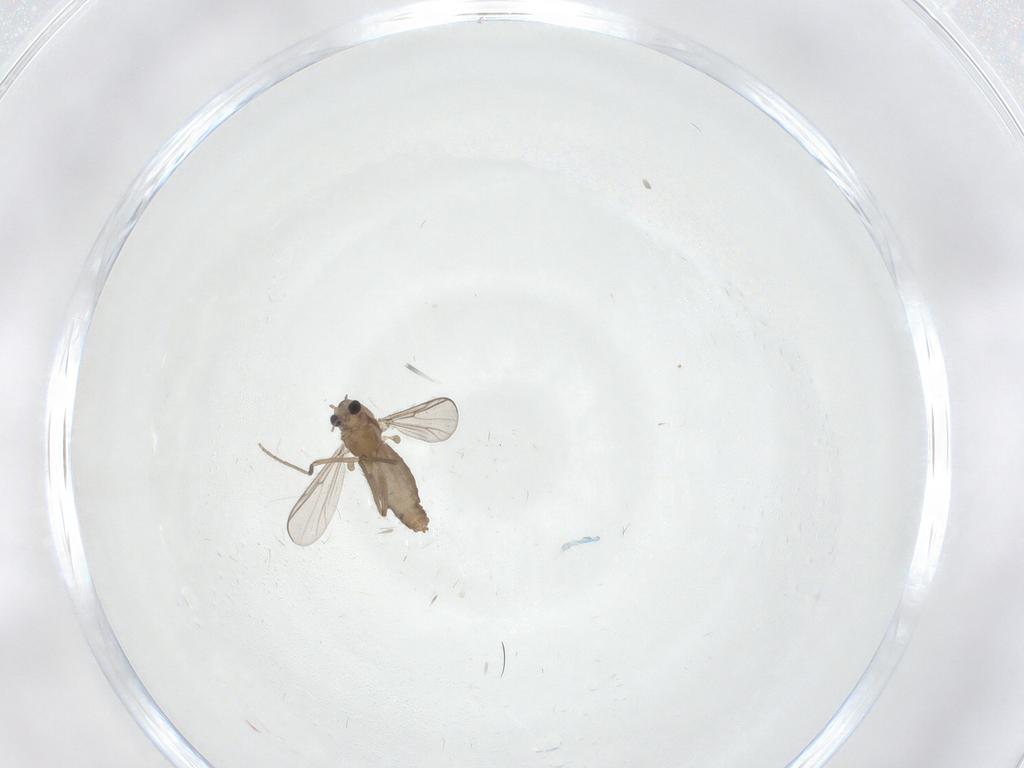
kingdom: Animalia
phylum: Arthropoda
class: Insecta
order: Diptera
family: Chironomidae
